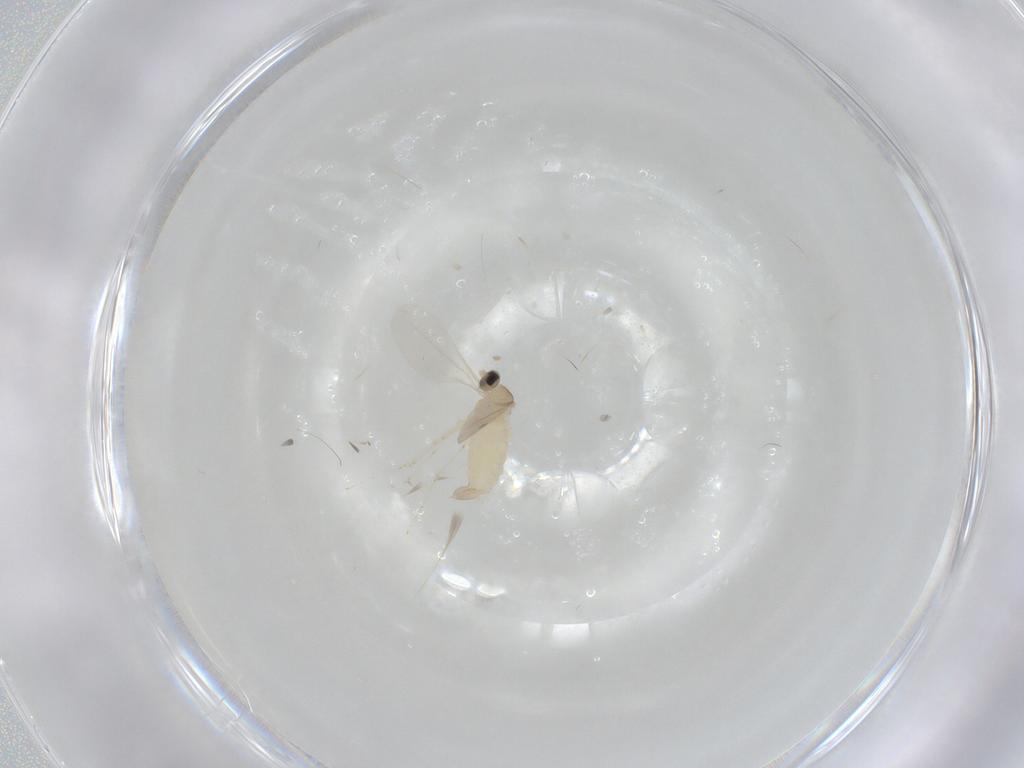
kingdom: Animalia
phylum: Arthropoda
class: Insecta
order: Diptera
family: Cecidomyiidae
